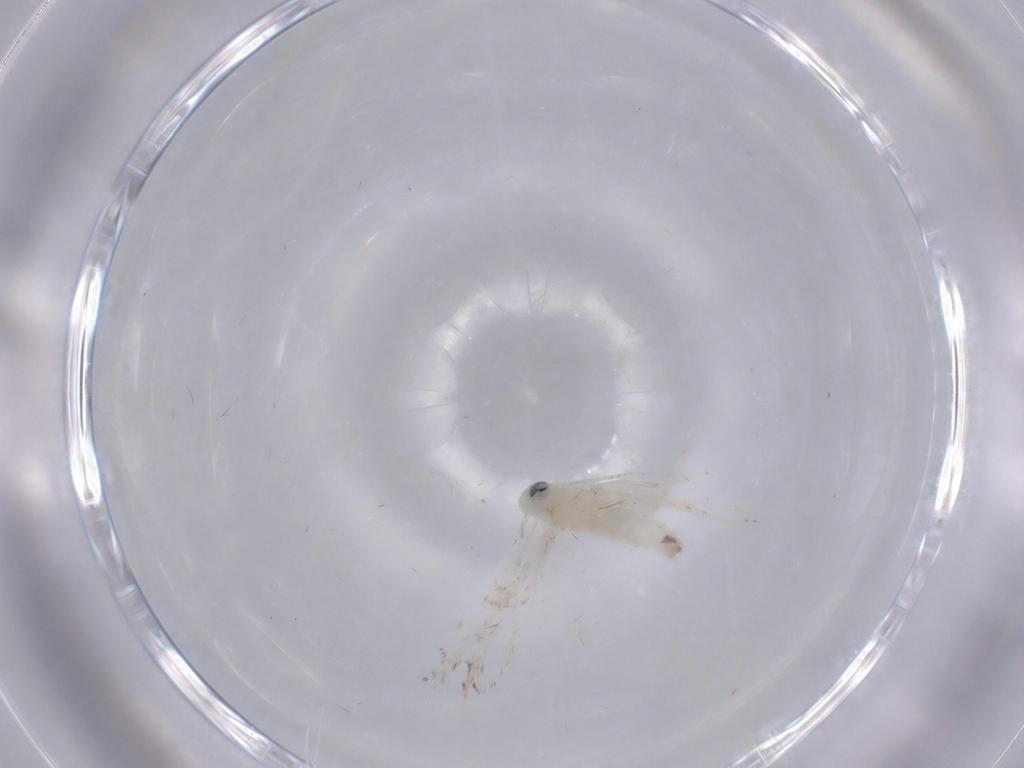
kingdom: Animalia
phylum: Arthropoda
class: Insecta
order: Lepidoptera
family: Gracillariidae
